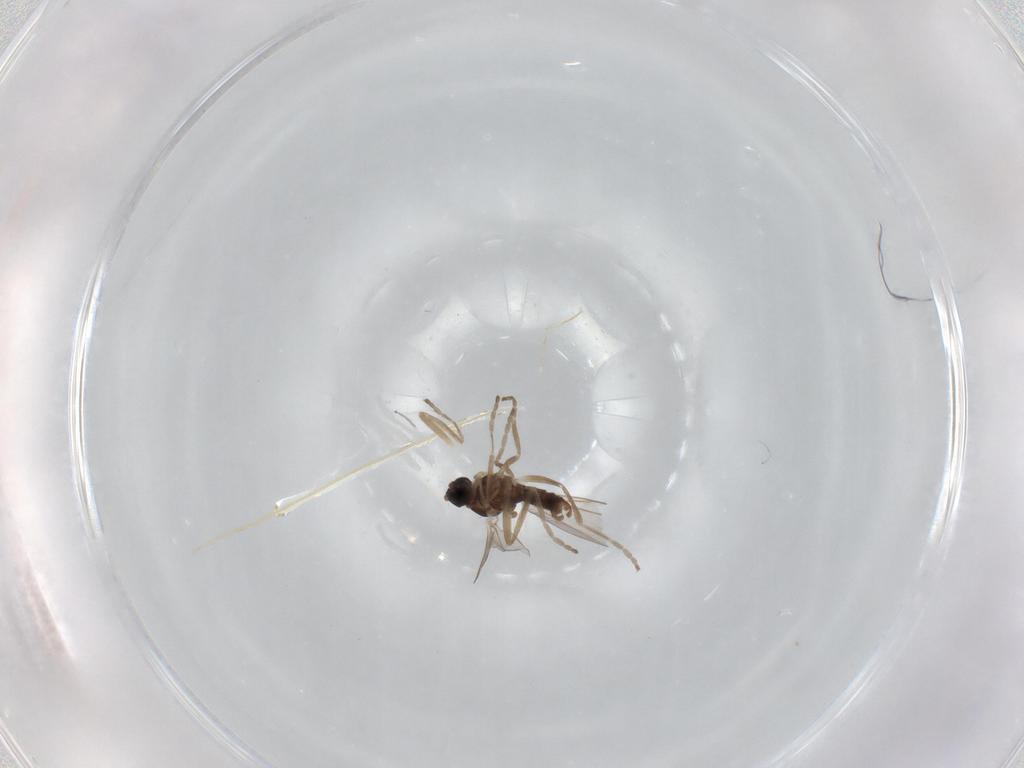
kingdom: Animalia
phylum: Arthropoda
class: Insecta
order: Diptera
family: Cecidomyiidae
